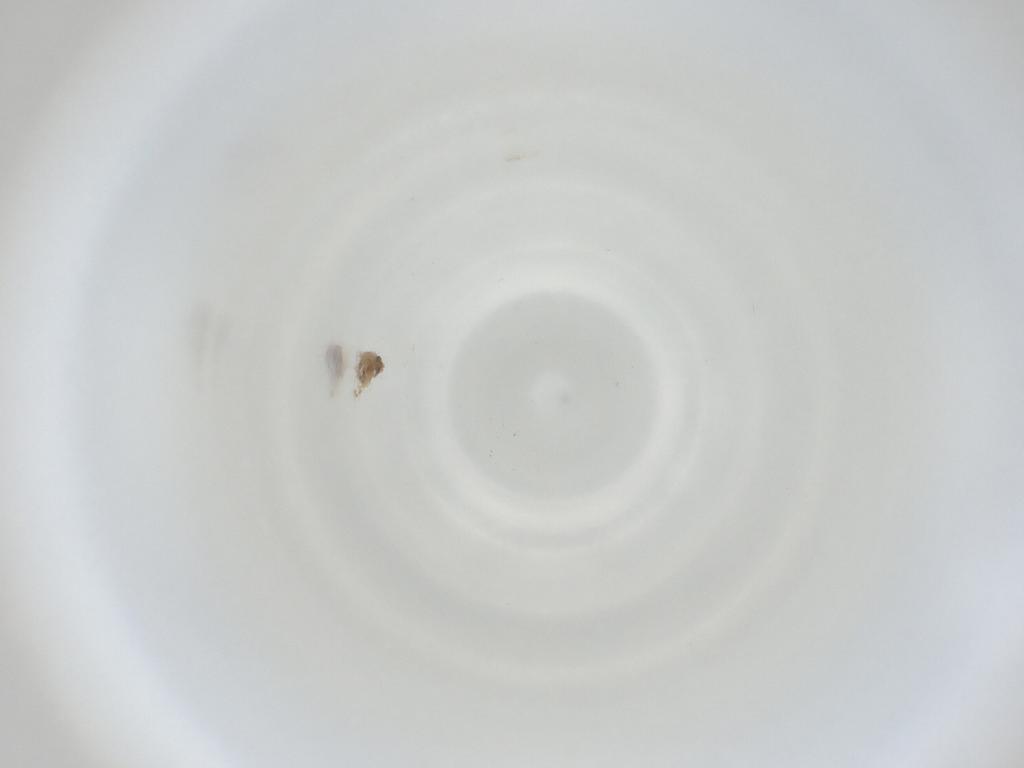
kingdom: Animalia
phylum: Arthropoda
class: Insecta
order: Diptera
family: Cecidomyiidae
